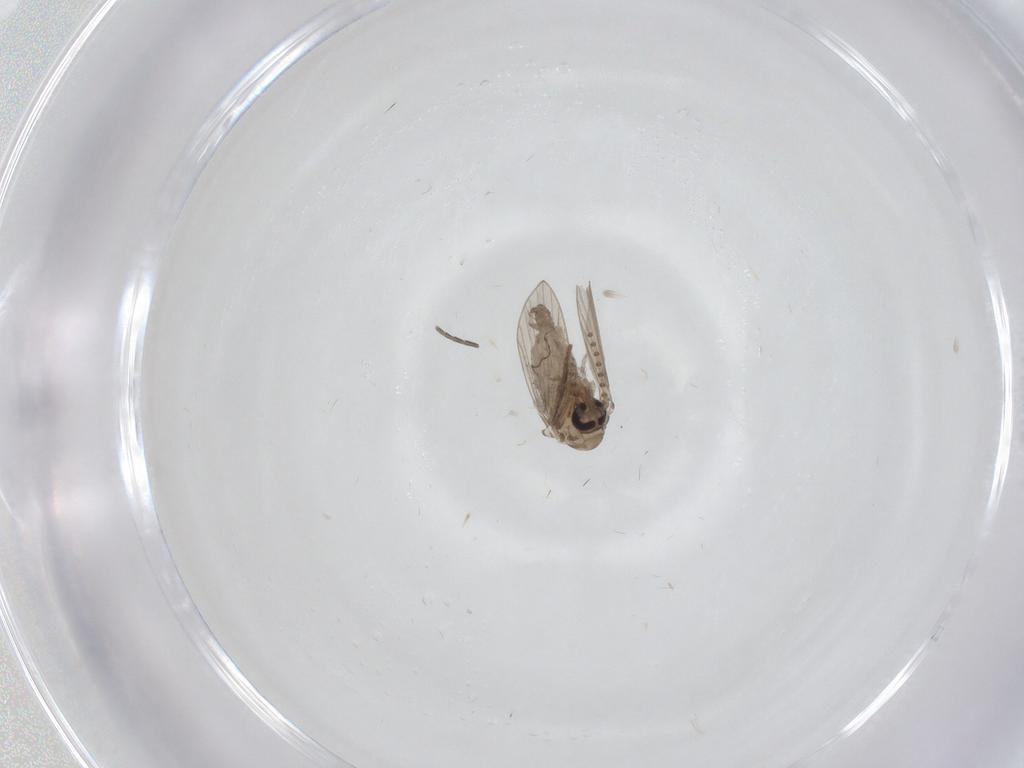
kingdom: Animalia
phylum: Arthropoda
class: Insecta
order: Diptera
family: Psychodidae
